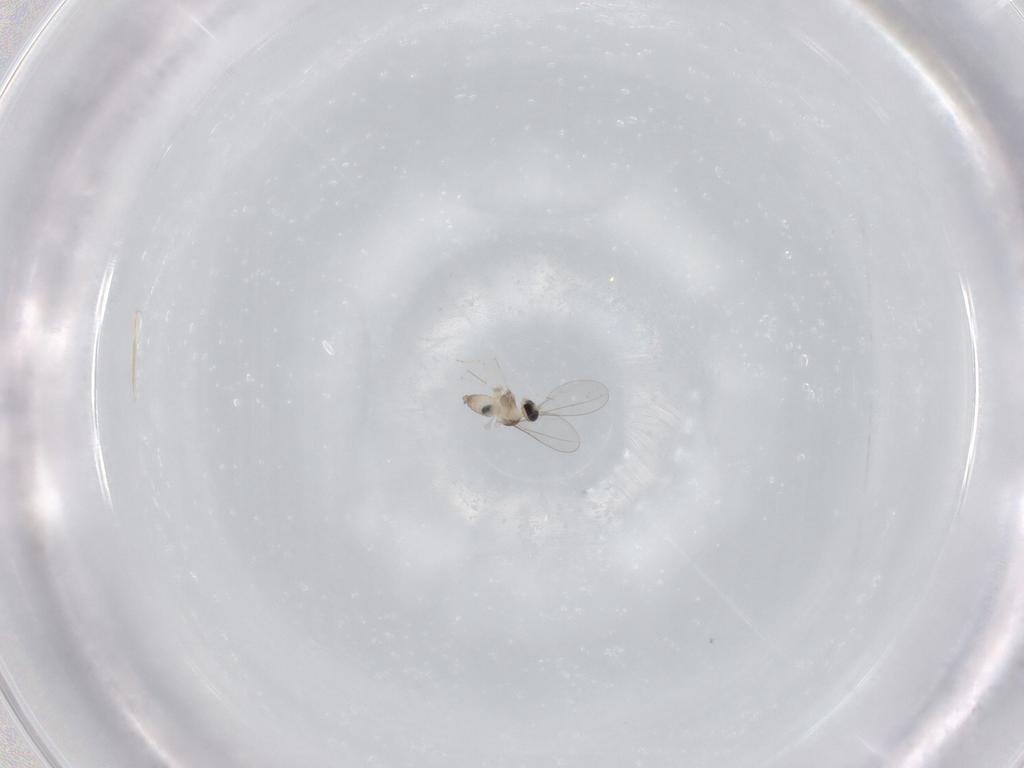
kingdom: Animalia
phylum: Arthropoda
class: Insecta
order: Diptera
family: Cecidomyiidae
